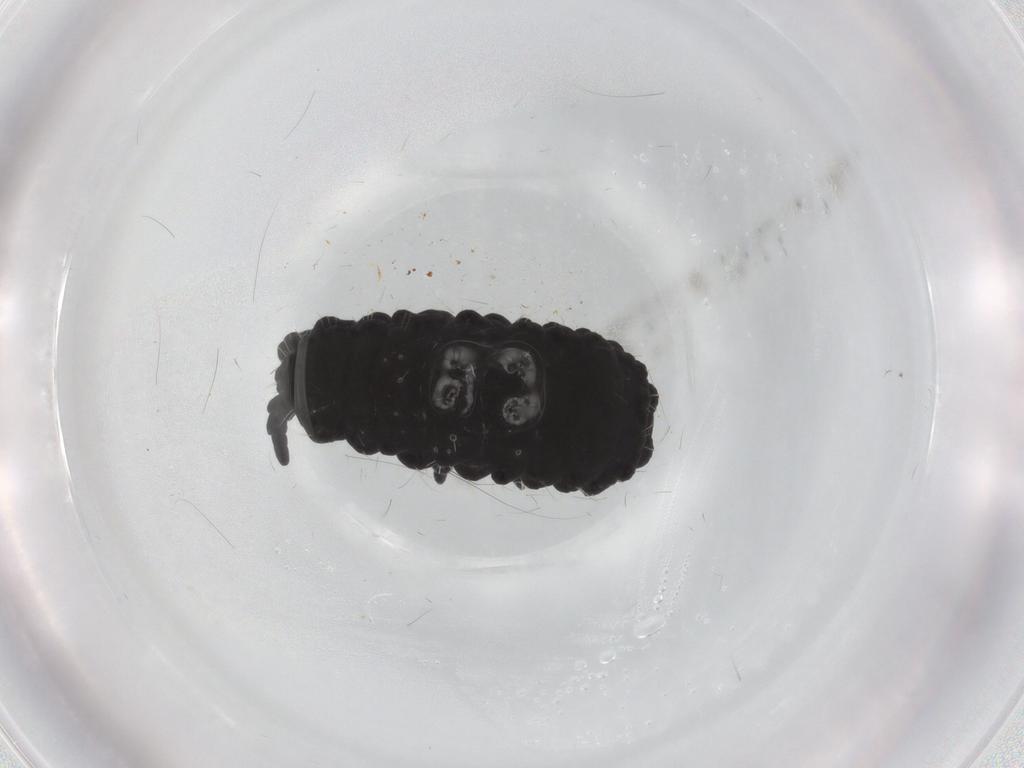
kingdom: Animalia
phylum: Arthropoda
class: Collembola
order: Poduromorpha
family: Neanuridae
